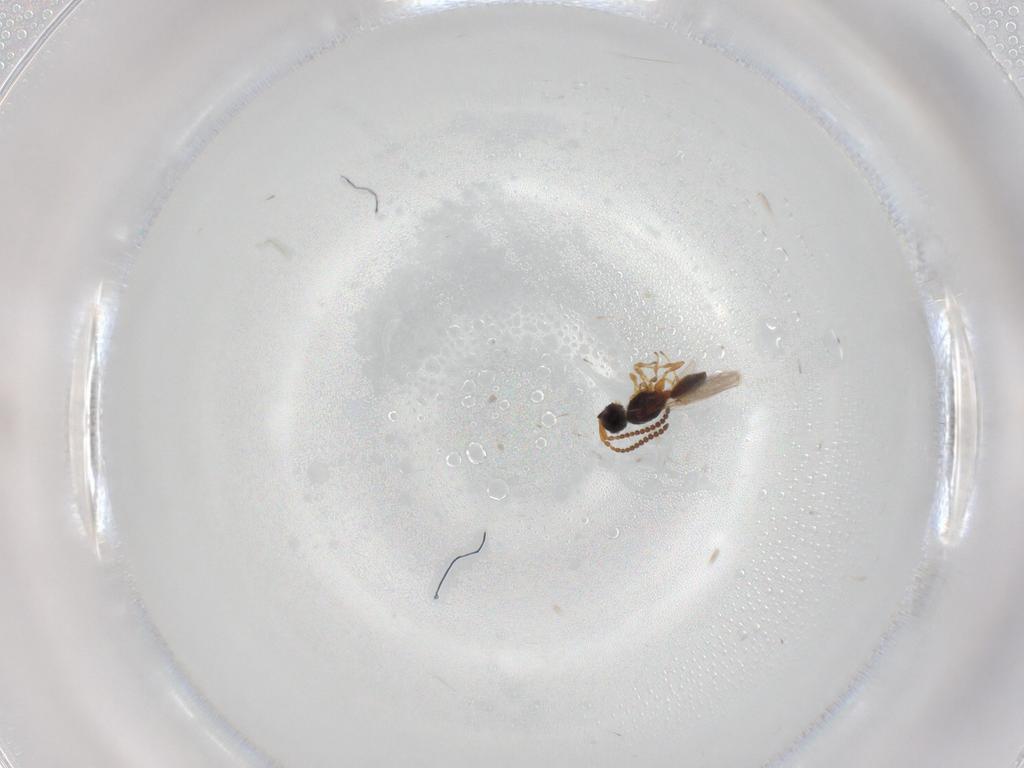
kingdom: Animalia
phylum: Arthropoda
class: Insecta
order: Hymenoptera
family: Diapriidae
